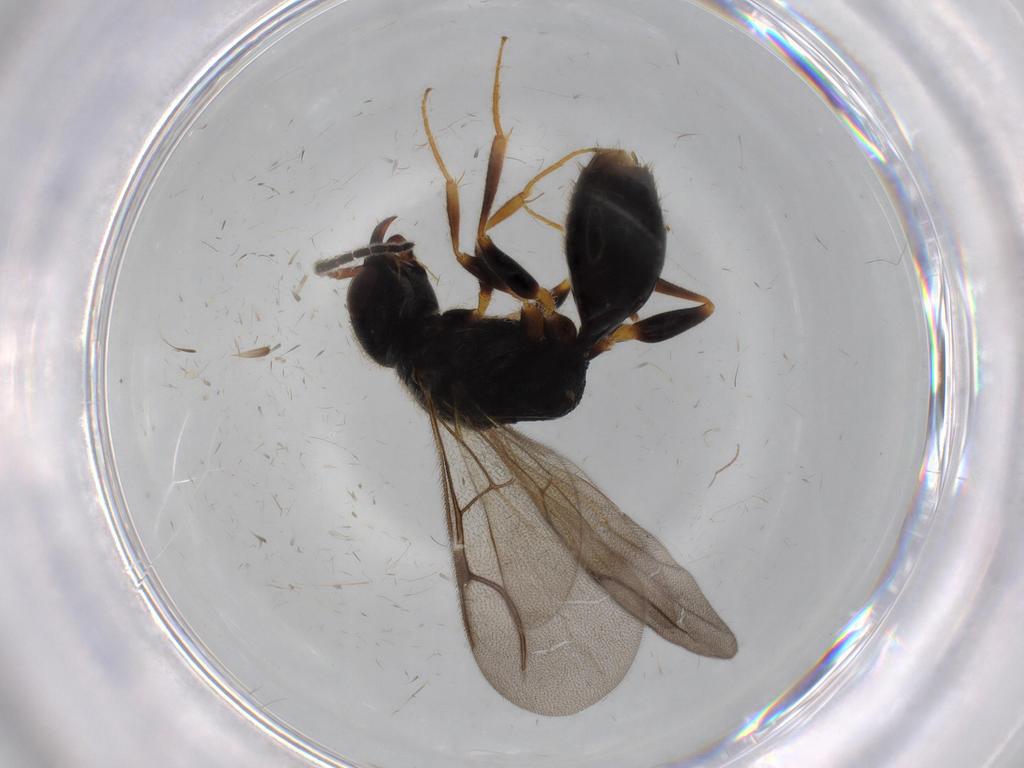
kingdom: Animalia
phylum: Arthropoda
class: Insecta
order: Hymenoptera
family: Bethylidae
